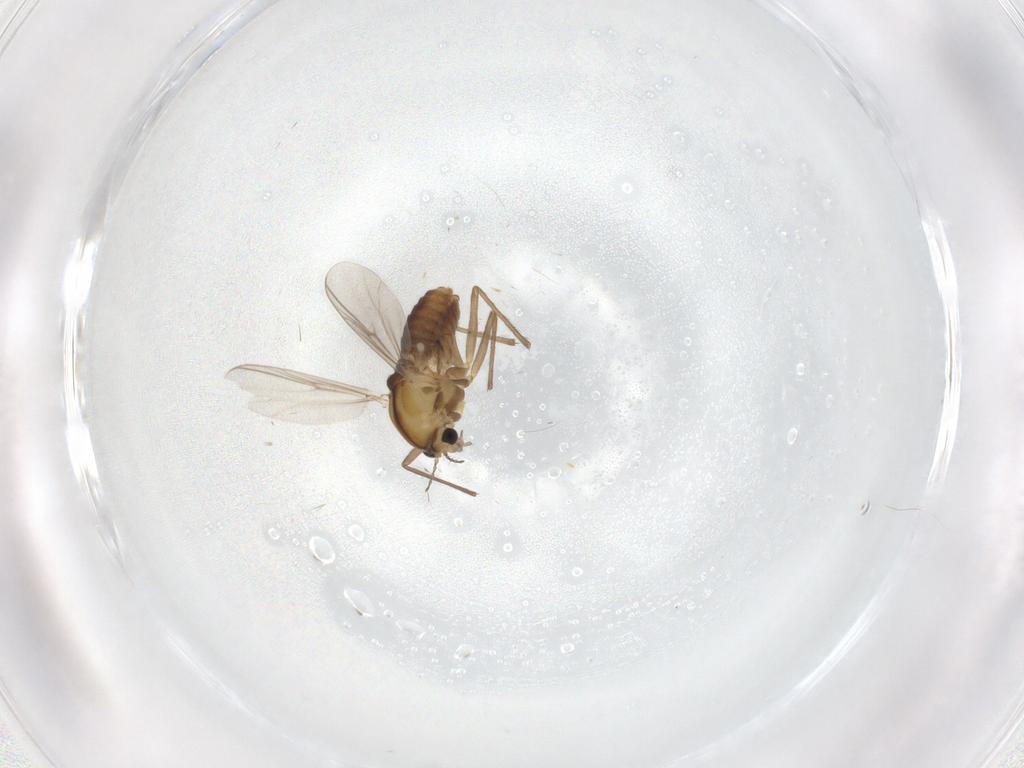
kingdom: Animalia
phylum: Arthropoda
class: Insecta
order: Diptera
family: Chironomidae
